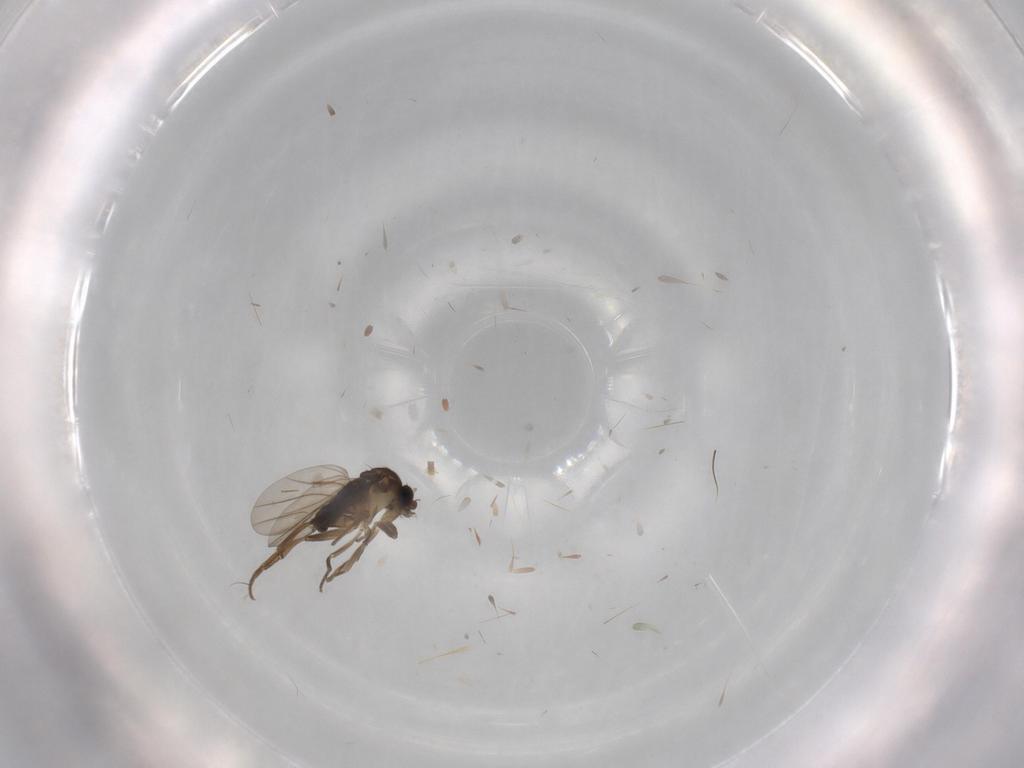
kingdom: Animalia
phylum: Arthropoda
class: Insecta
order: Diptera
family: Phoridae
